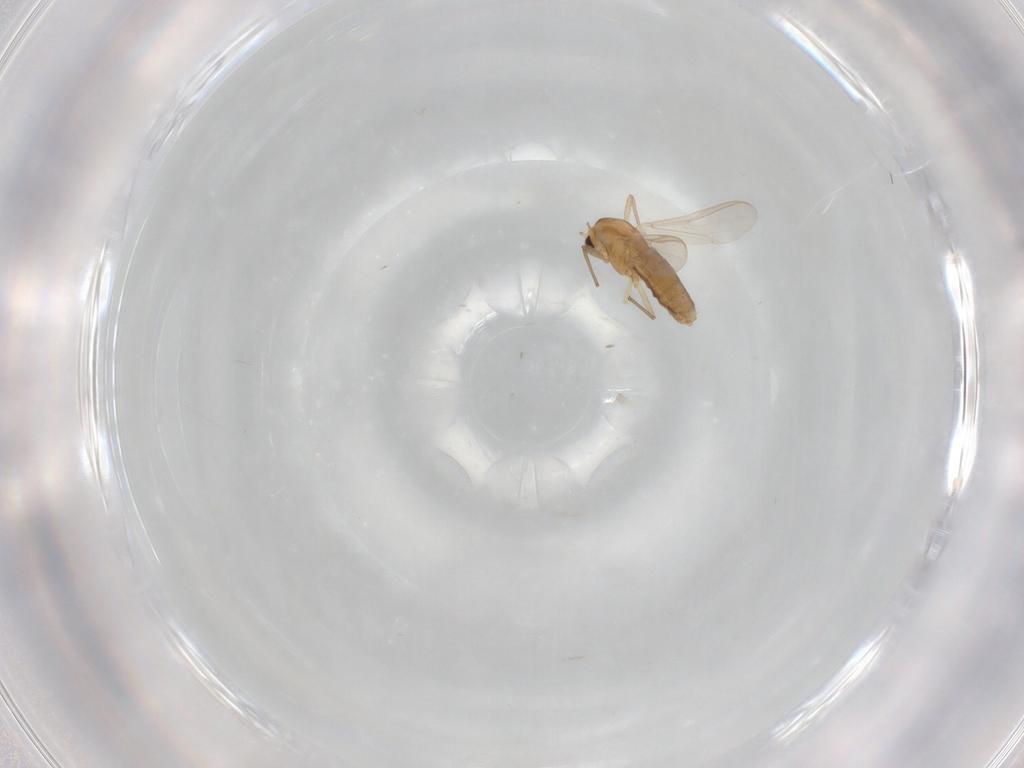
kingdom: Animalia
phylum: Arthropoda
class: Insecta
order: Diptera
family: Chironomidae
